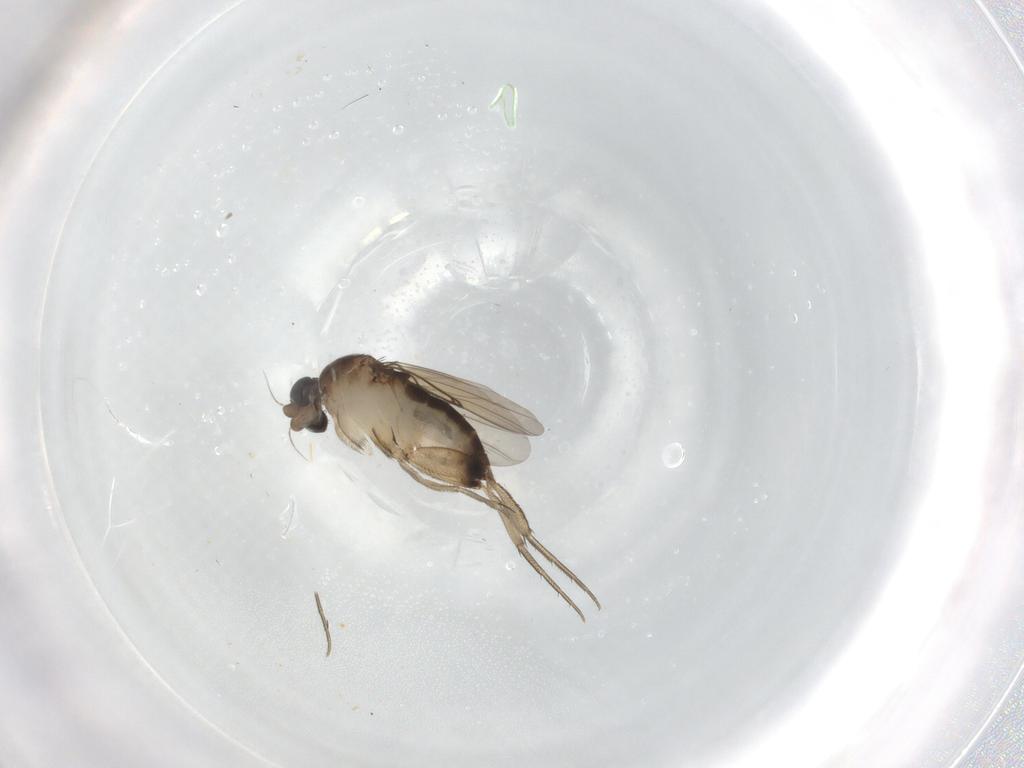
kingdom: Animalia
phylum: Arthropoda
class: Insecta
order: Diptera
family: Phoridae
